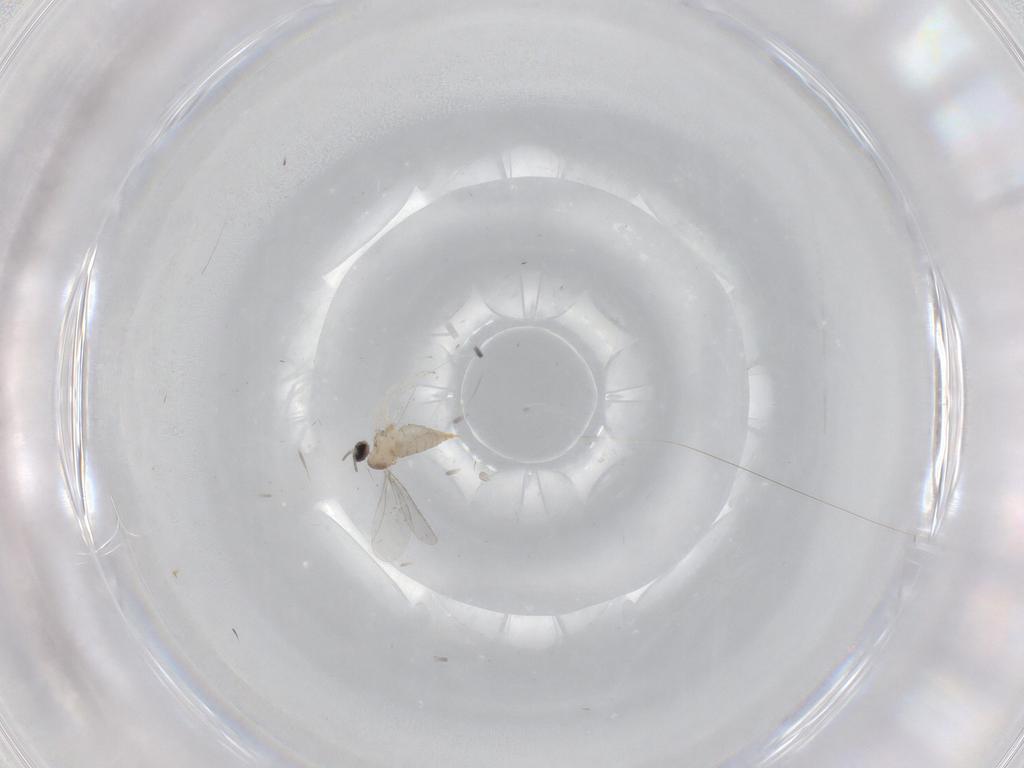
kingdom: Animalia
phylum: Arthropoda
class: Insecta
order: Diptera
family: Cecidomyiidae
